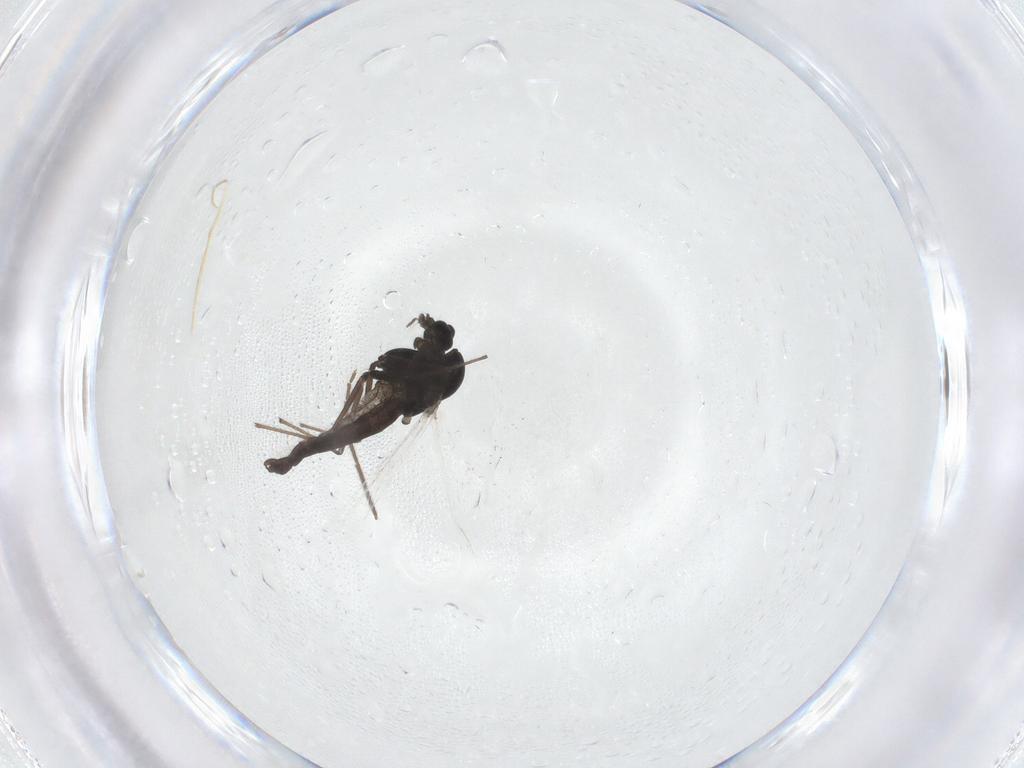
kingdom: Animalia
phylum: Arthropoda
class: Insecta
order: Diptera
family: Chironomidae
